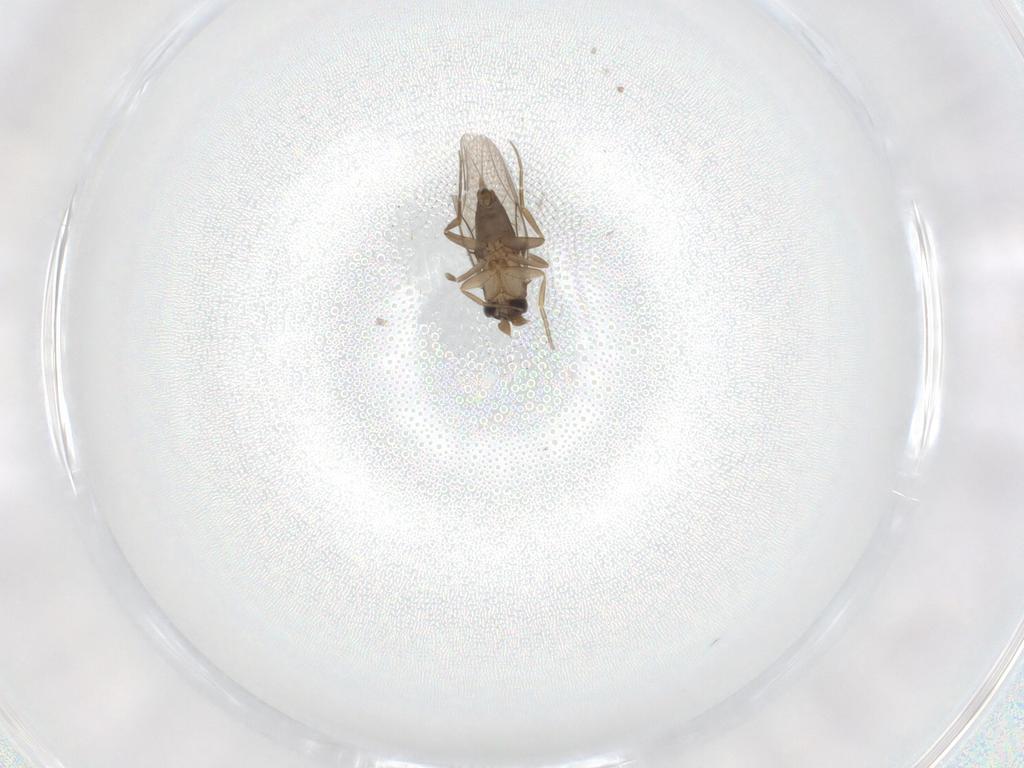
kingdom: Animalia
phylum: Arthropoda
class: Insecta
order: Diptera
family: Phoridae
